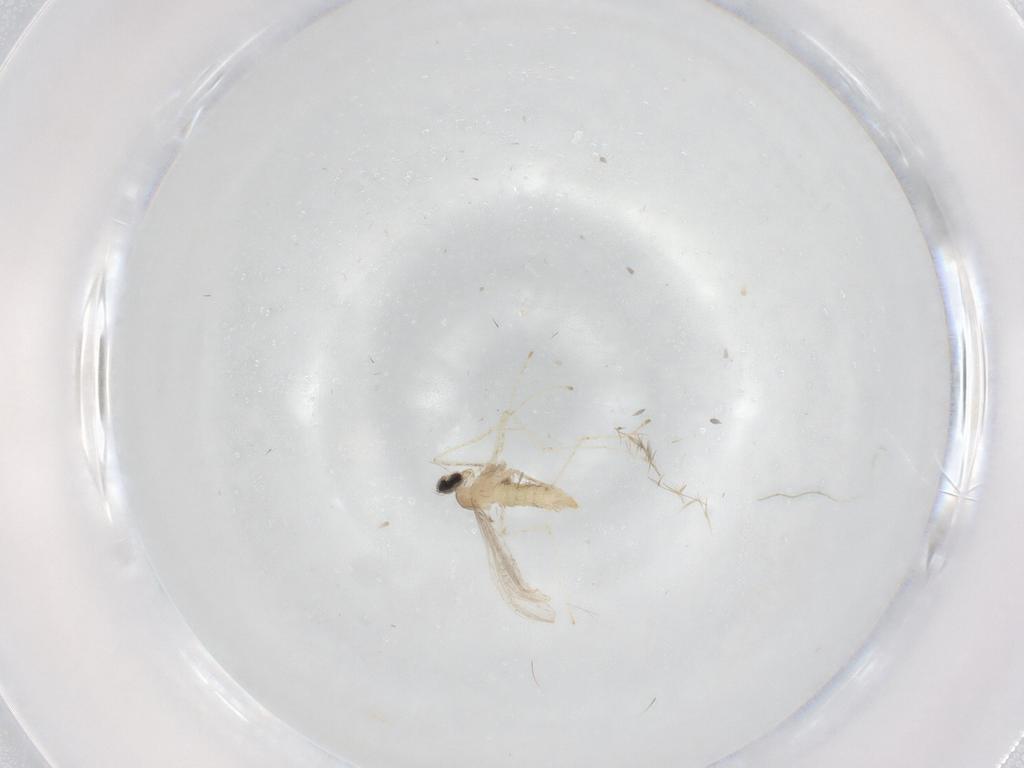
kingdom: Animalia
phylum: Arthropoda
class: Insecta
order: Diptera
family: Cecidomyiidae
